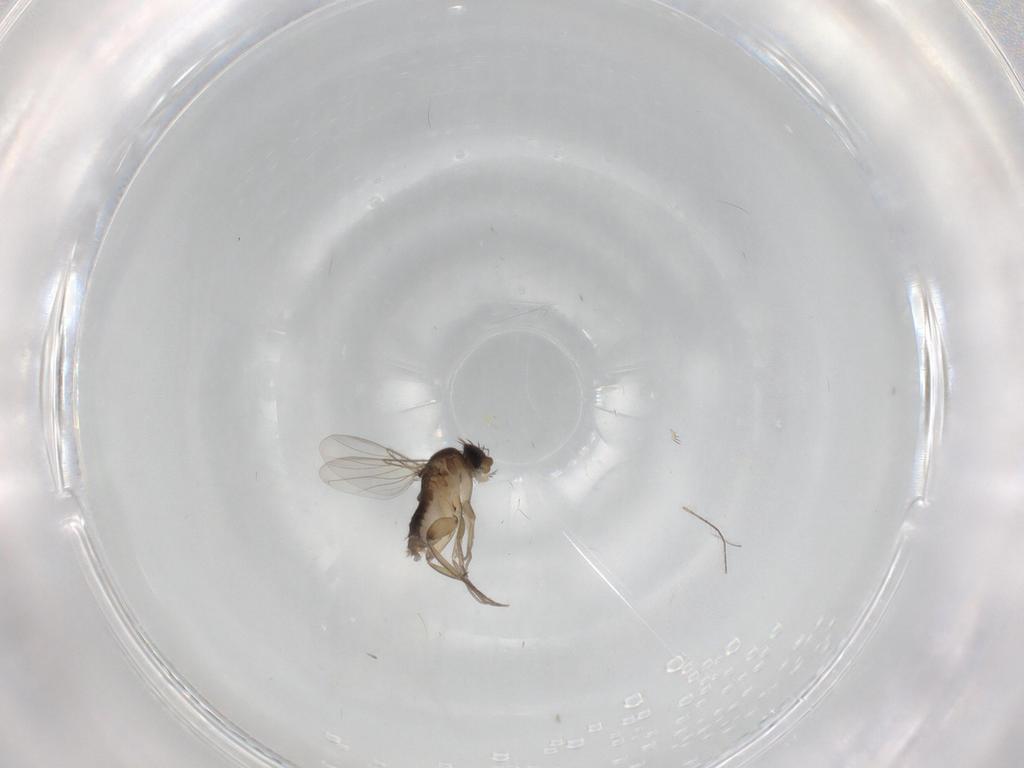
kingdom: Animalia
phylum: Arthropoda
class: Insecta
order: Diptera
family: Phoridae
